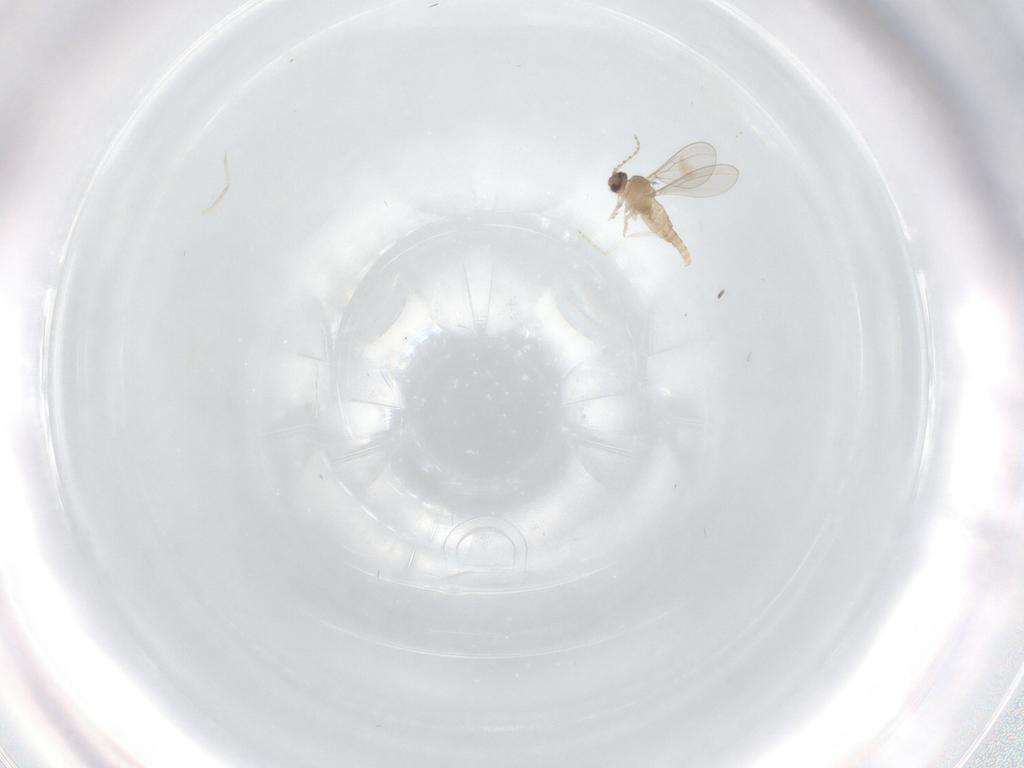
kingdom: Animalia
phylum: Arthropoda
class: Insecta
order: Diptera
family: Cecidomyiidae
